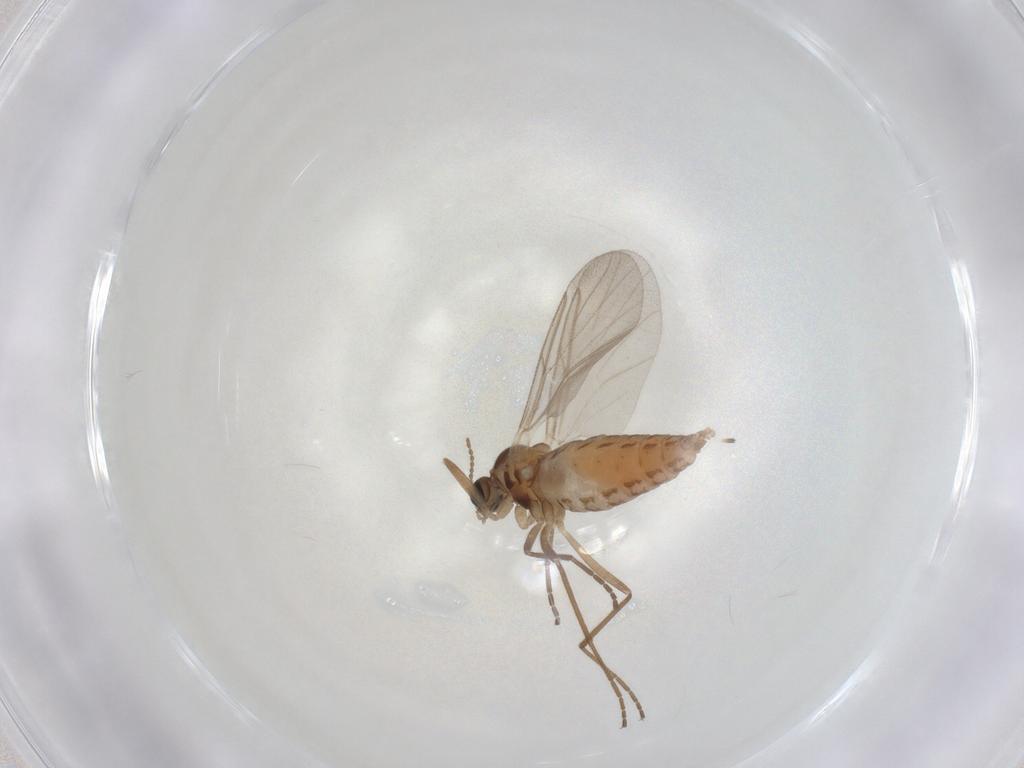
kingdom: Animalia
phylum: Arthropoda
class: Insecta
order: Diptera
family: Cecidomyiidae
